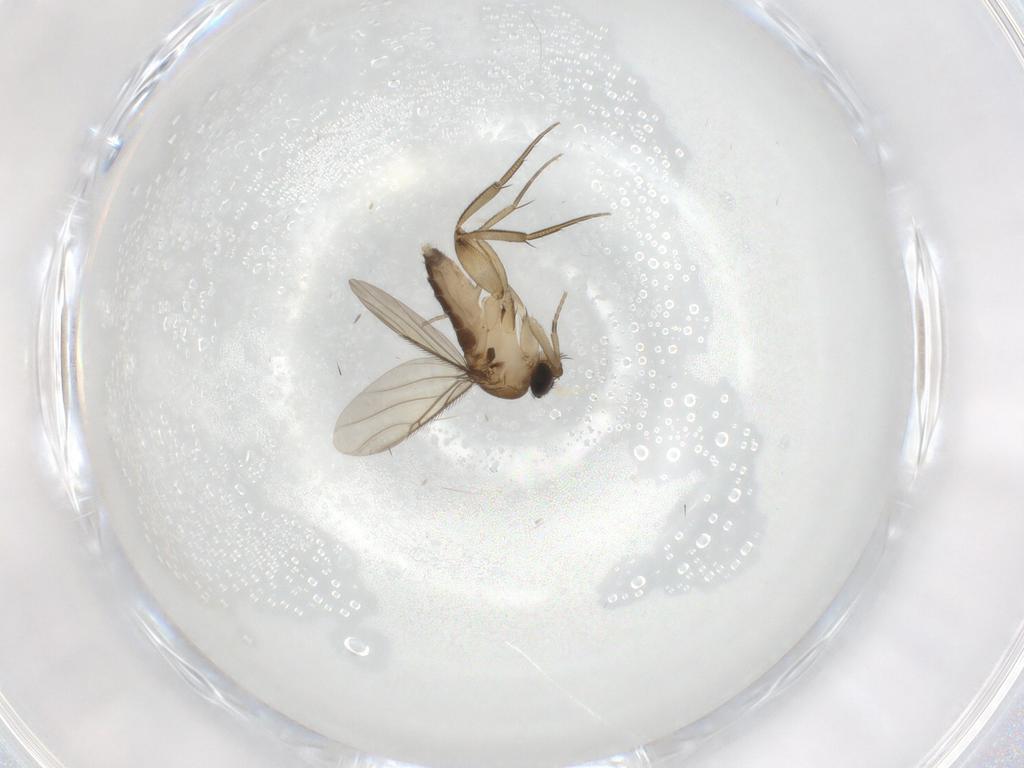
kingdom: Animalia
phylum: Arthropoda
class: Insecta
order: Diptera
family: Phoridae
